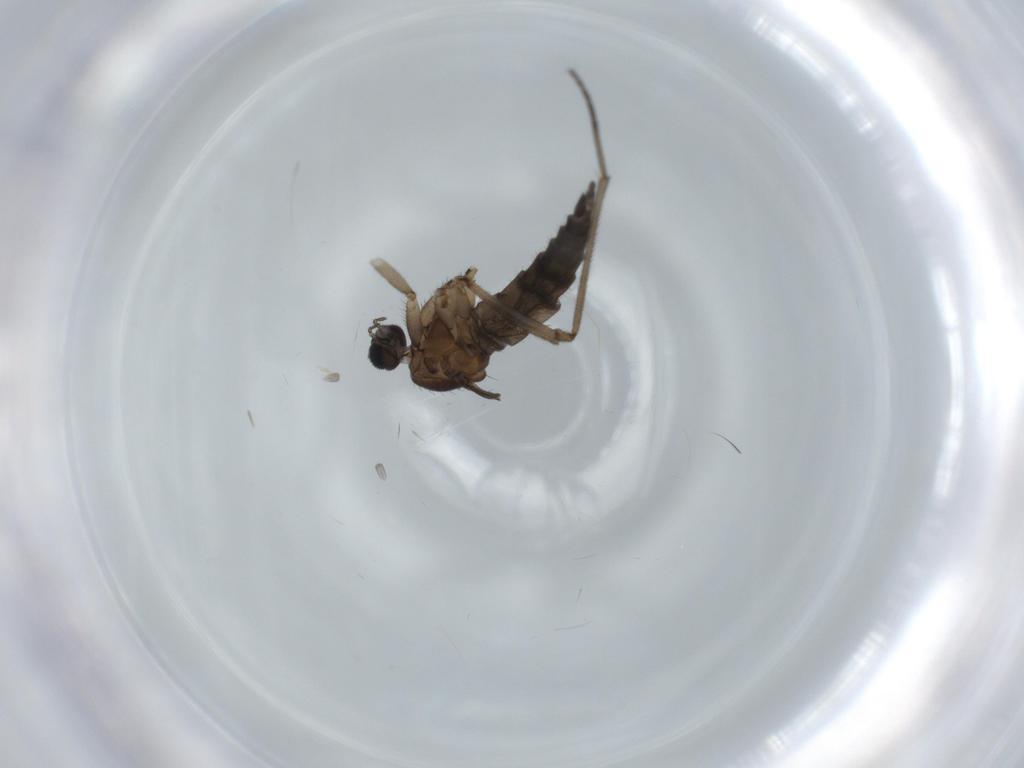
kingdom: Animalia
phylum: Arthropoda
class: Insecta
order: Diptera
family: Sciaridae
